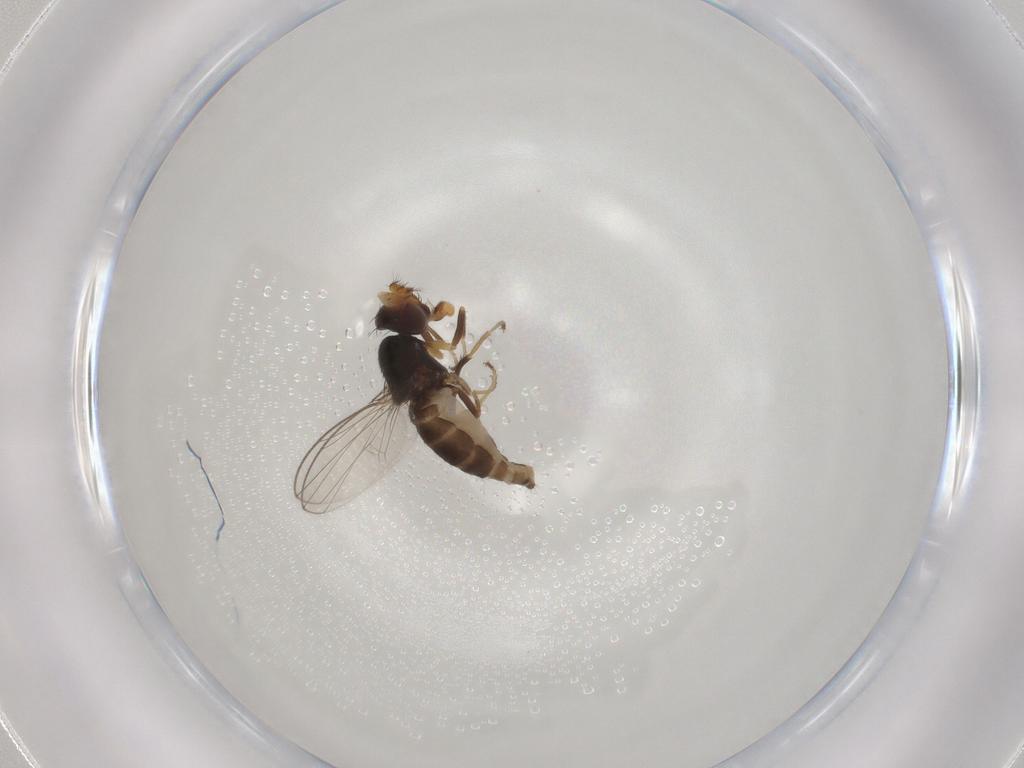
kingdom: Animalia
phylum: Arthropoda
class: Insecta
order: Diptera
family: Ephydridae
